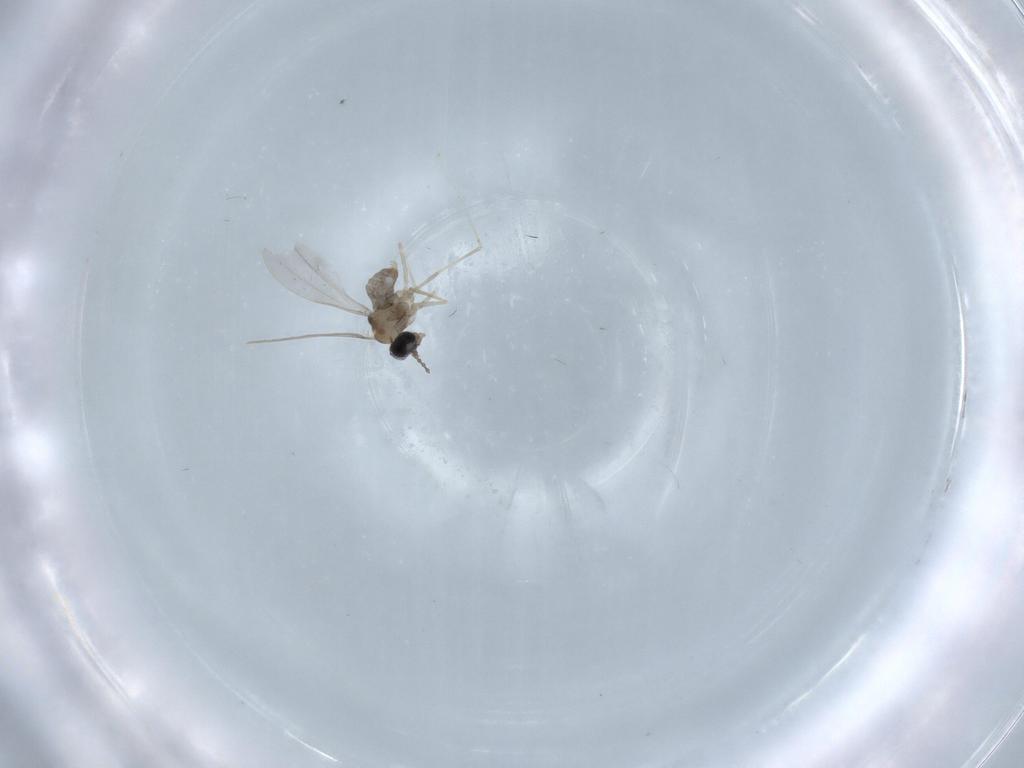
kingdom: Animalia
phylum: Arthropoda
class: Insecta
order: Diptera
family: Cecidomyiidae
